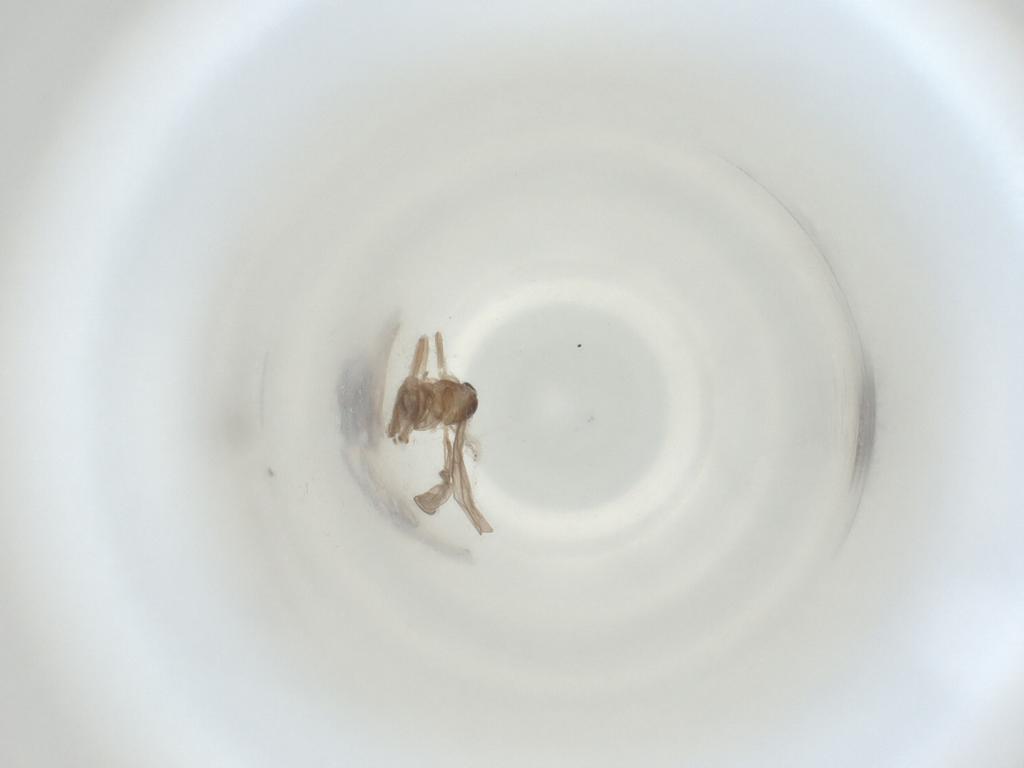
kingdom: Animalia
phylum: Arthropoda
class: Insecta
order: Diptera
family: Cecidomyiidae
